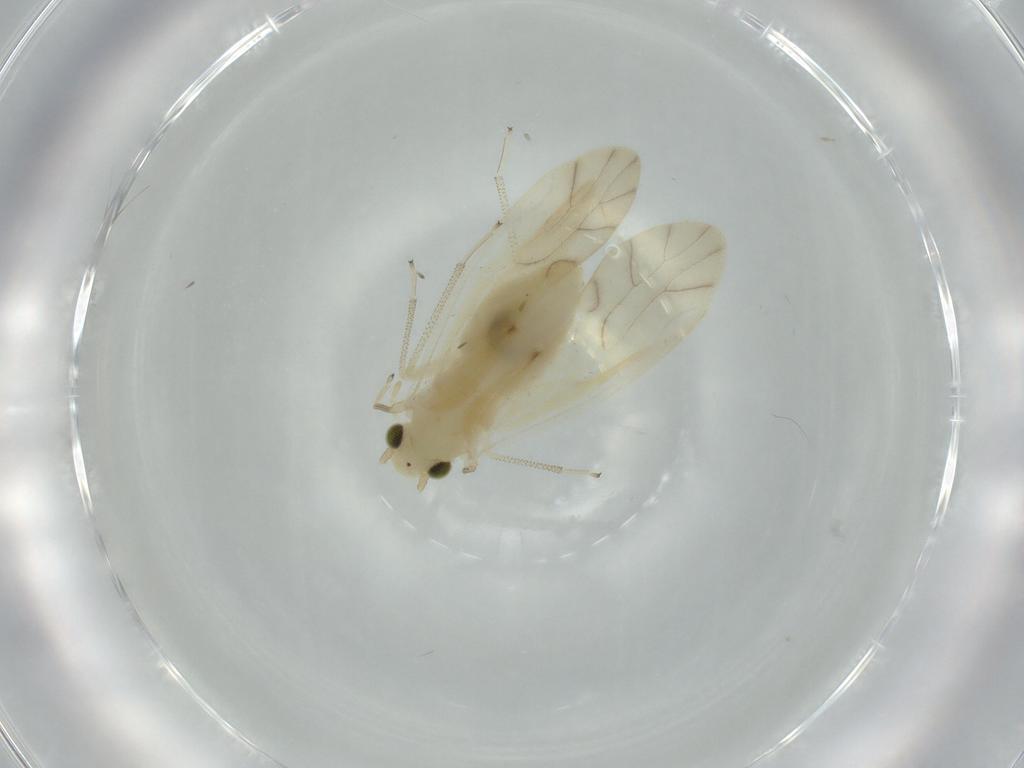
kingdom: Animalia
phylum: Arthropoda
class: Insecta
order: Psocodea
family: Caeciliusidae
